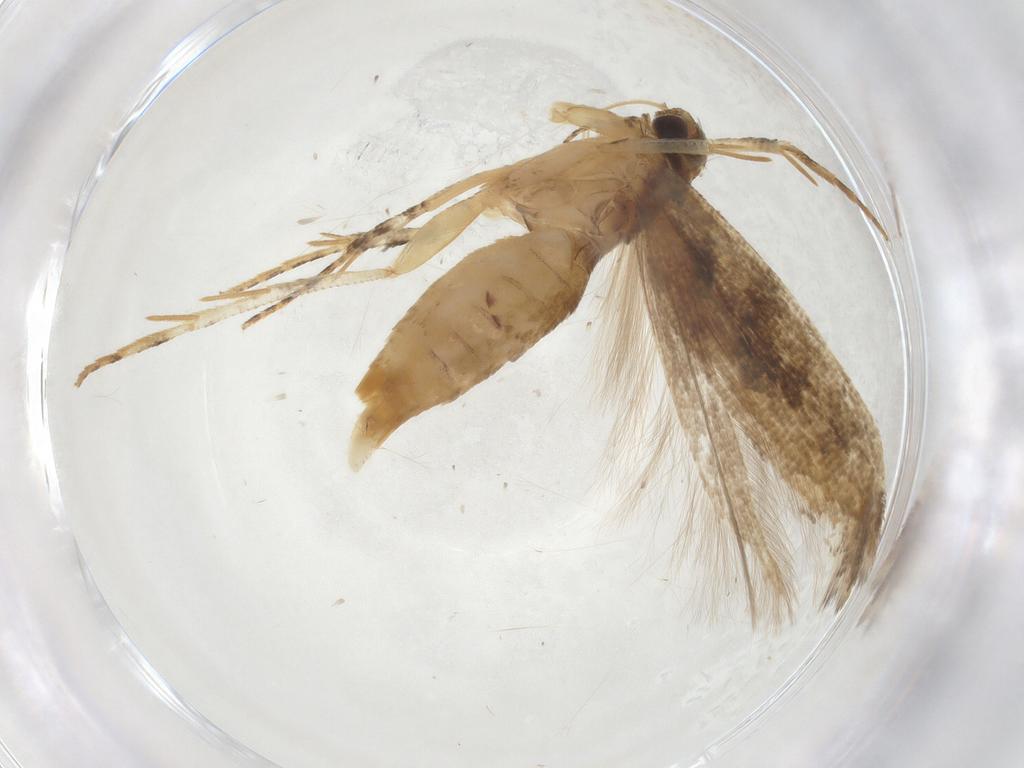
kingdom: Animalia
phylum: Arthropoda
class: Insecta
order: Lepidoptera
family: Gelechiidae
